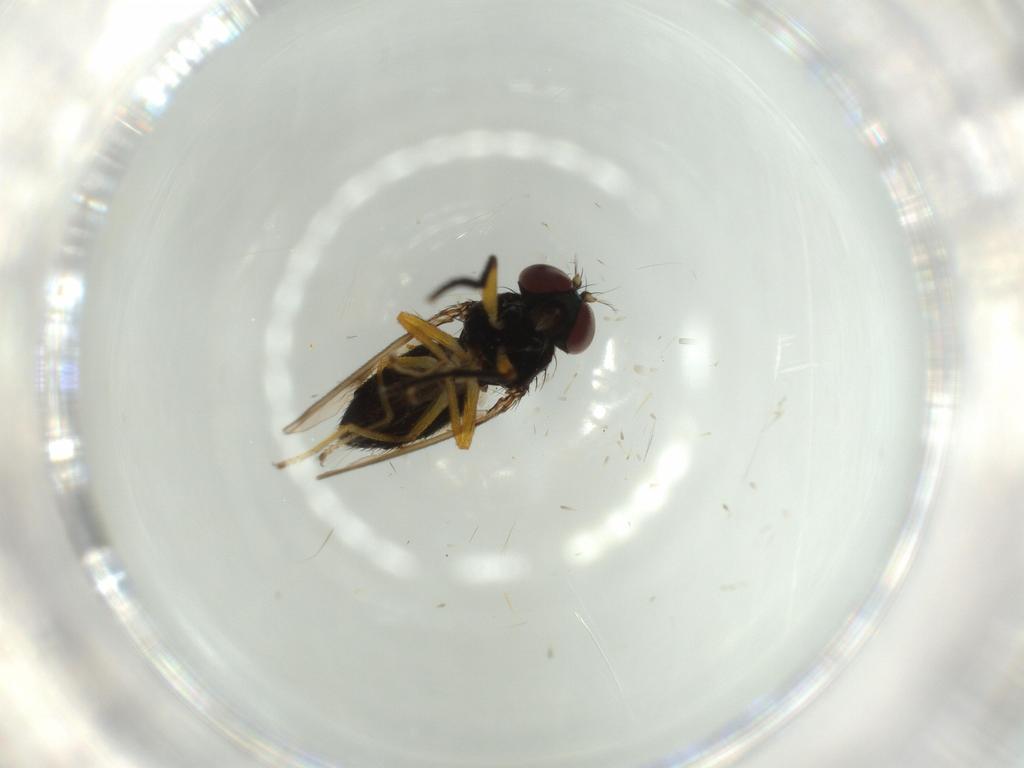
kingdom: Animalia
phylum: Arthropoda
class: Insecta
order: Diptera
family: Ephydridae
